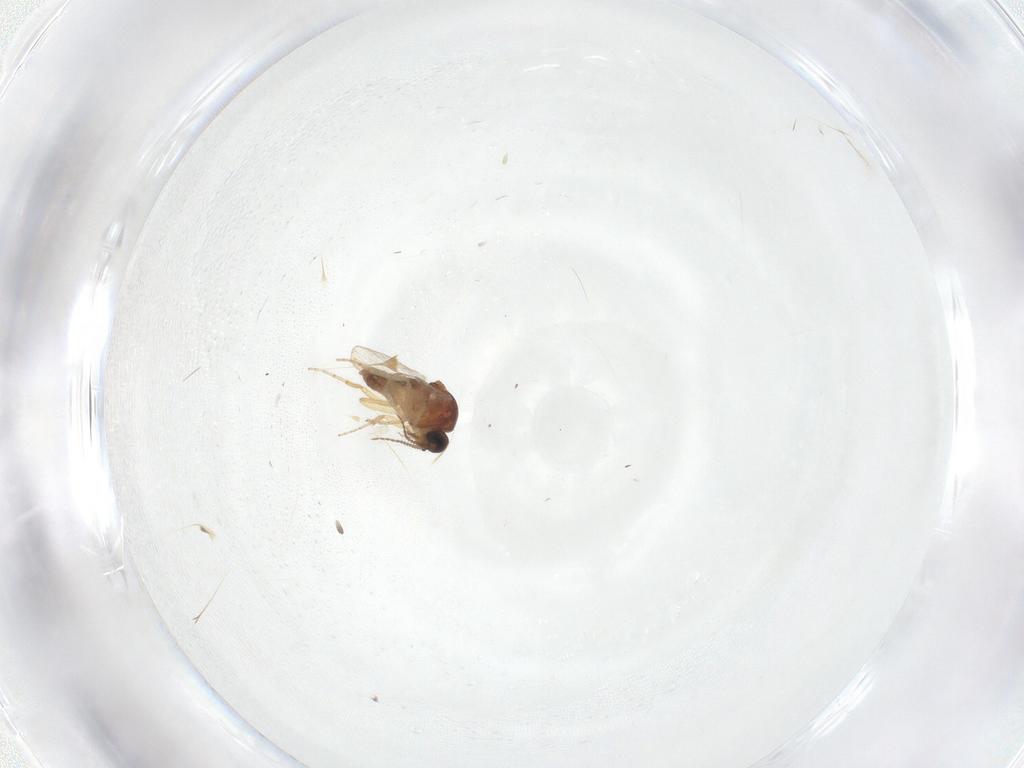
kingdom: Animalia
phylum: Arthropoda
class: Insecta
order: Diptera
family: Ceratopogonidae
